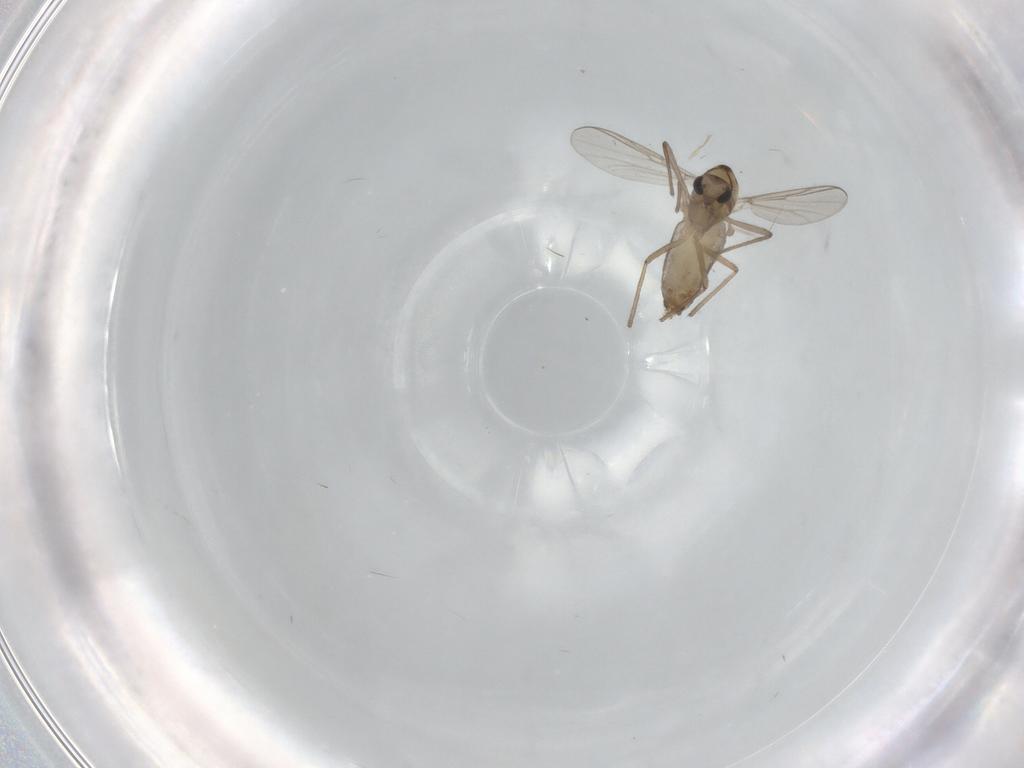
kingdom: Animalia
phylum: Arthropoda
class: Insecta
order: Diptera
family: Chironomidae
